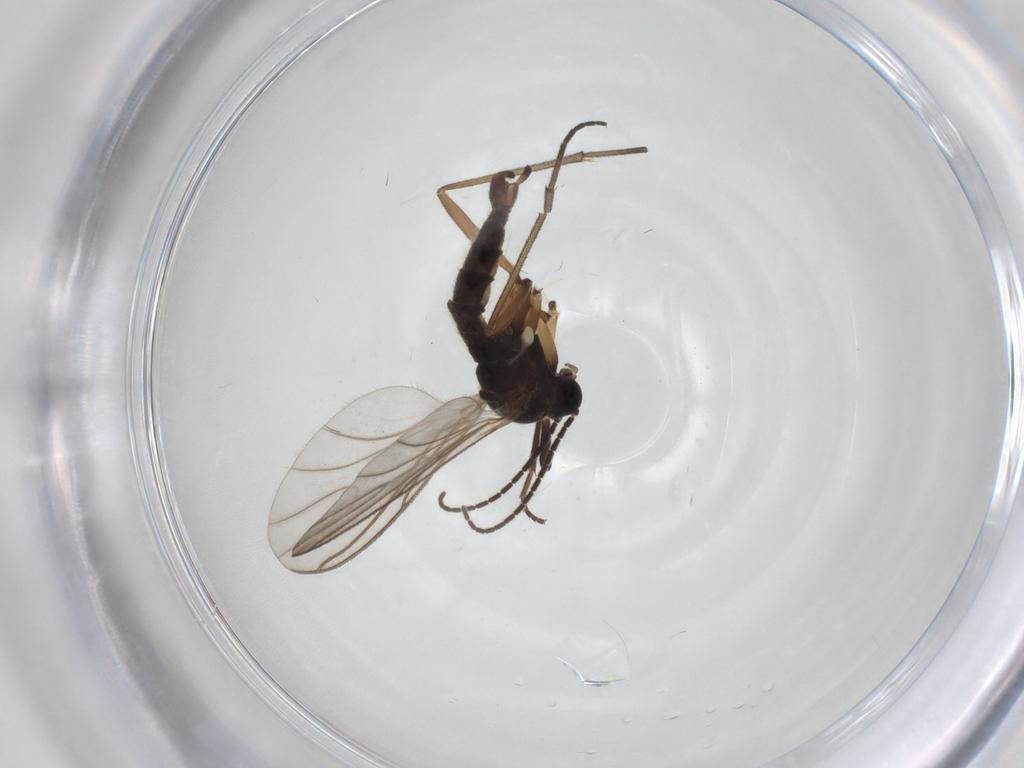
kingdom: Animalia
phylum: Arthropoda
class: Insecta
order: Diptera
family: Sciaridae
